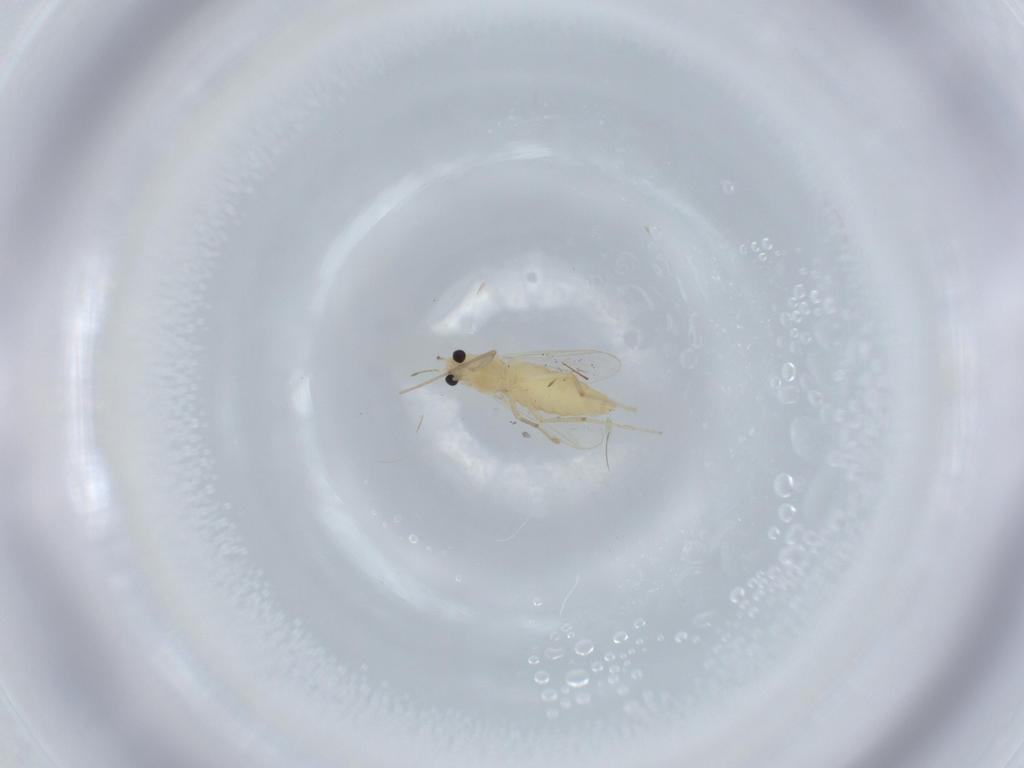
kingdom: Animalia
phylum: Arthropoda
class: Insecta
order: Diptera
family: Chironomidae
